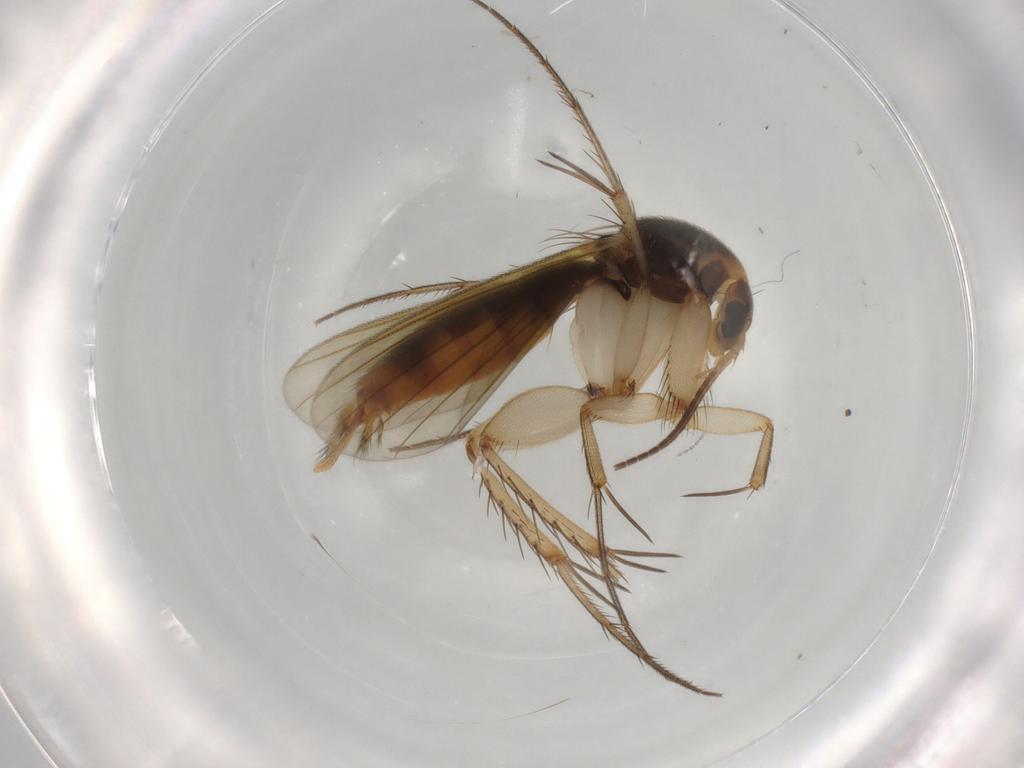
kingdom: Animalia
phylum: Arthropoda
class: Insecta
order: Diptera
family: Phoridae
